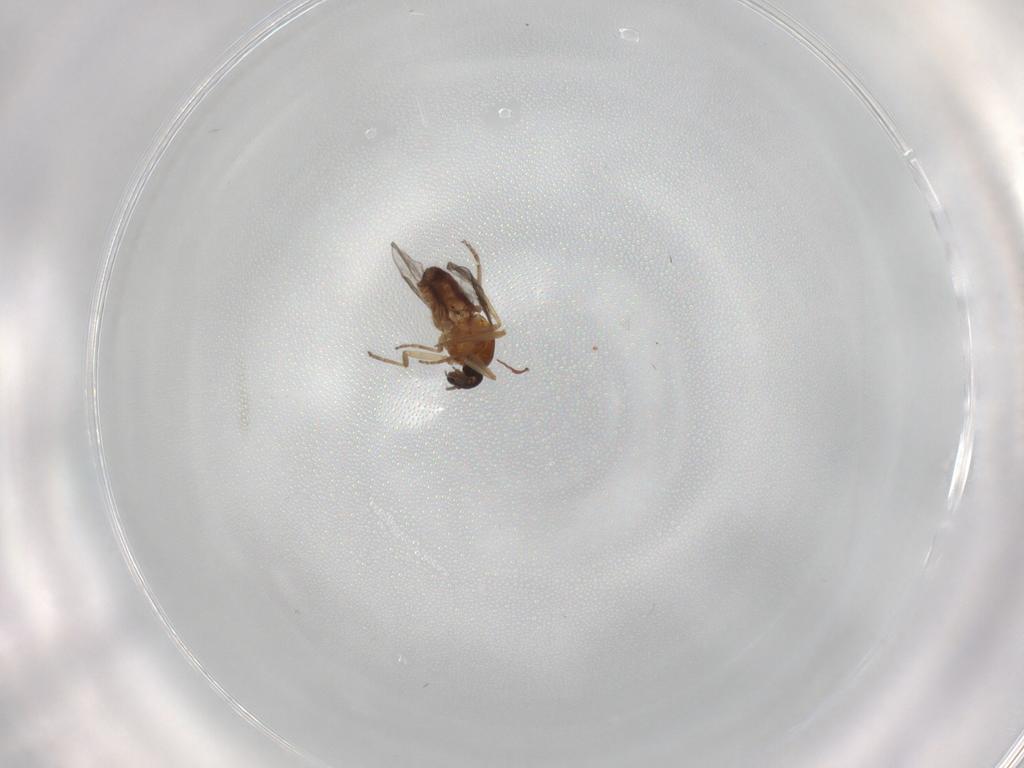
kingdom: Animalia
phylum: Arthropoda
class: Insecta
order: Diptera
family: Ceratopogonidae
